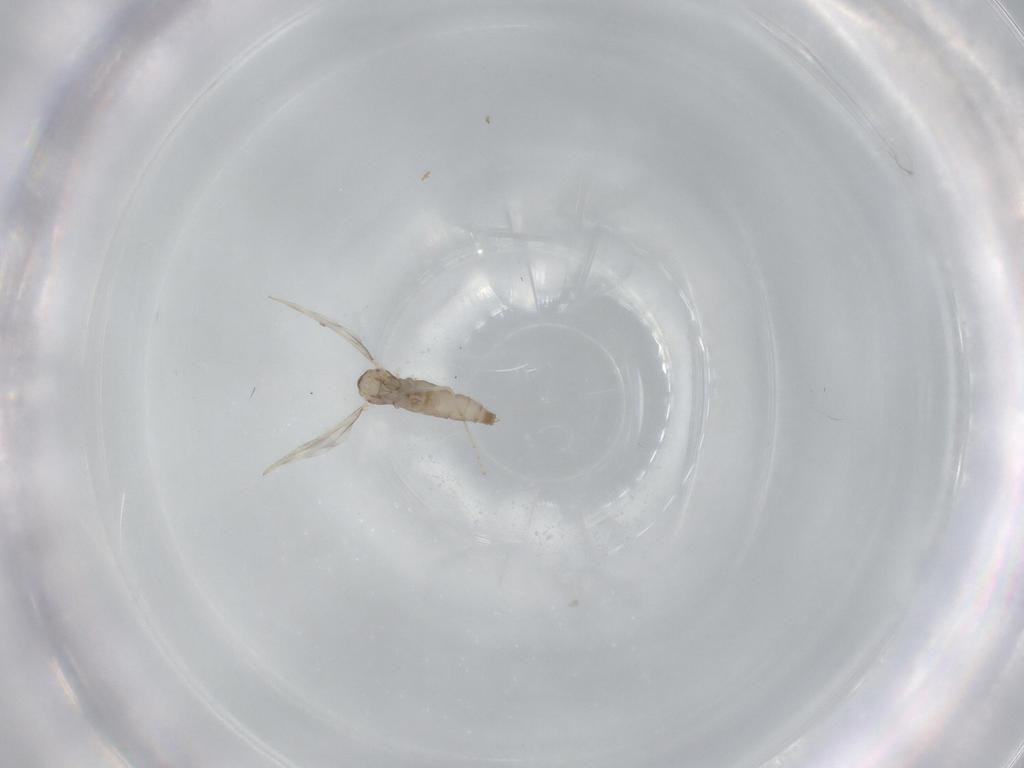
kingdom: Animalia
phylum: Arthropoda
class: Insecta
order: Diptera
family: Cecidomyiidae
